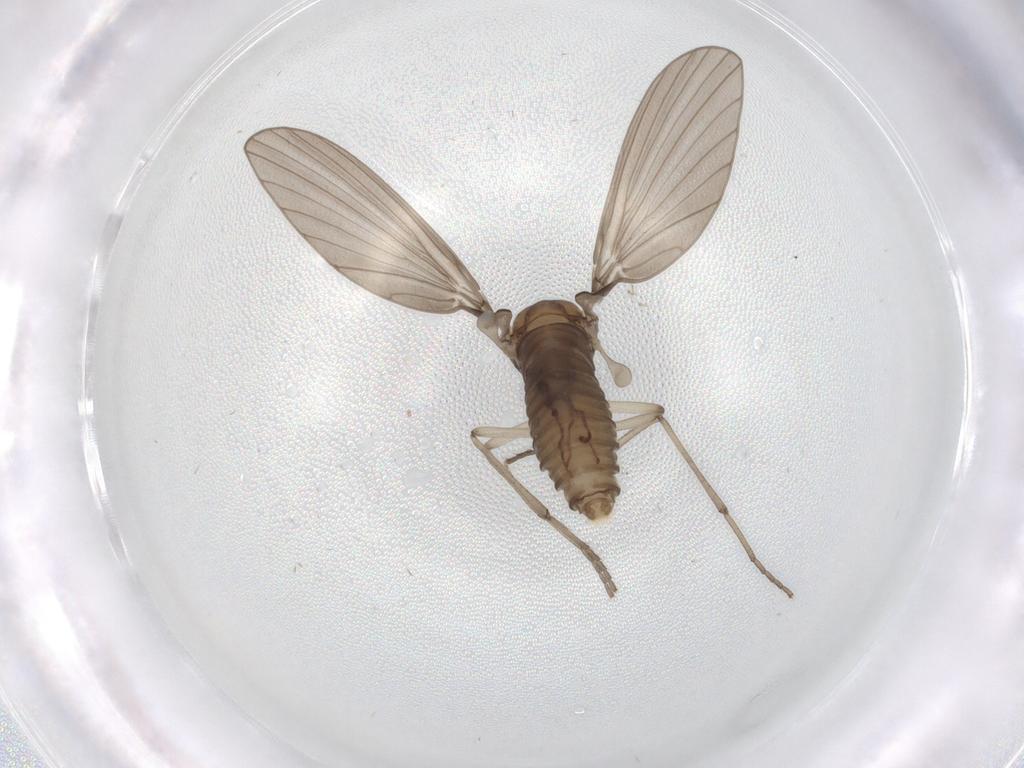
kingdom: Animalia
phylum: Arthropoda
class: Insecta
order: Diptera
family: Psychodidae
